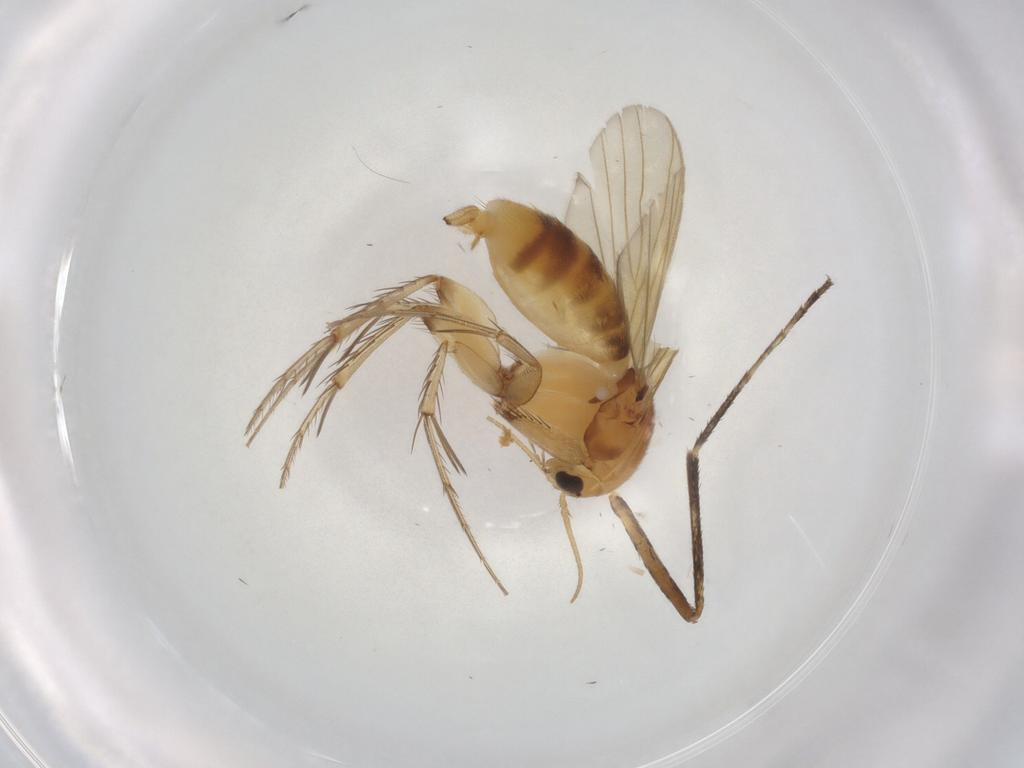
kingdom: Animalia
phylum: Arthropoda
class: Insecta
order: Diptera
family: Mycetophilidae
